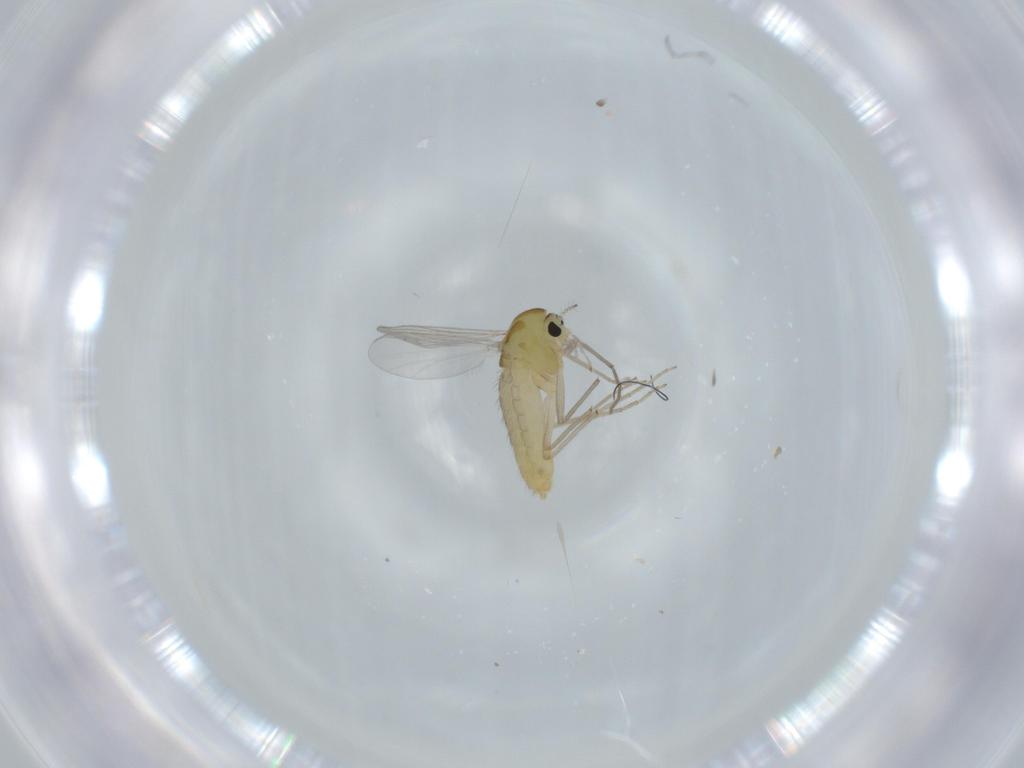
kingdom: Animalia
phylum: Arthropoda
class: Insecta
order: Diptera
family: Chironomidae
